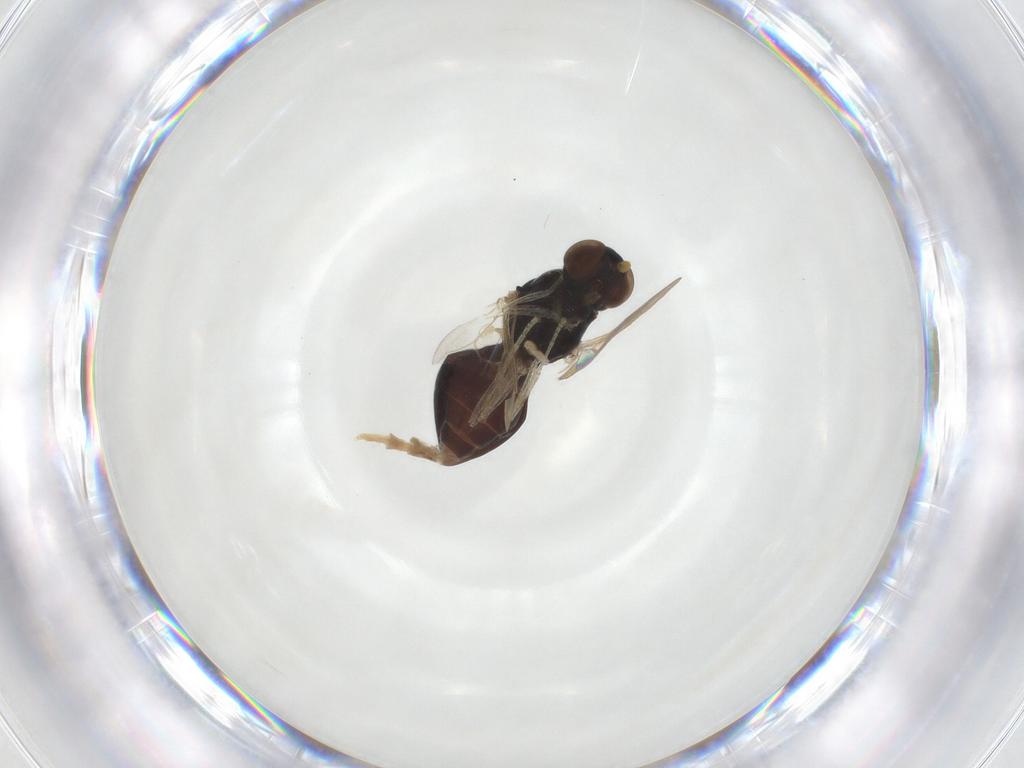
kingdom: Animalia
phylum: Arthropoda
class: Insecta
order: Diptera
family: Stratiomyidae
